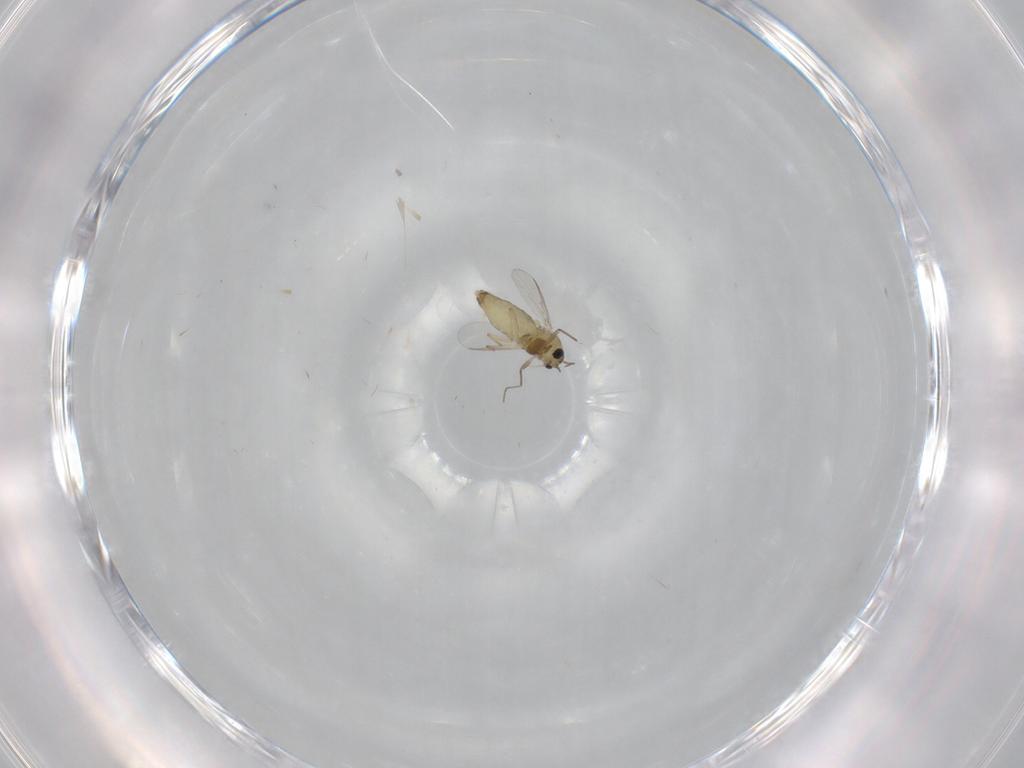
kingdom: Animalia
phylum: Arthropoda
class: Insecta
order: Diptera
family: Chironomidae
